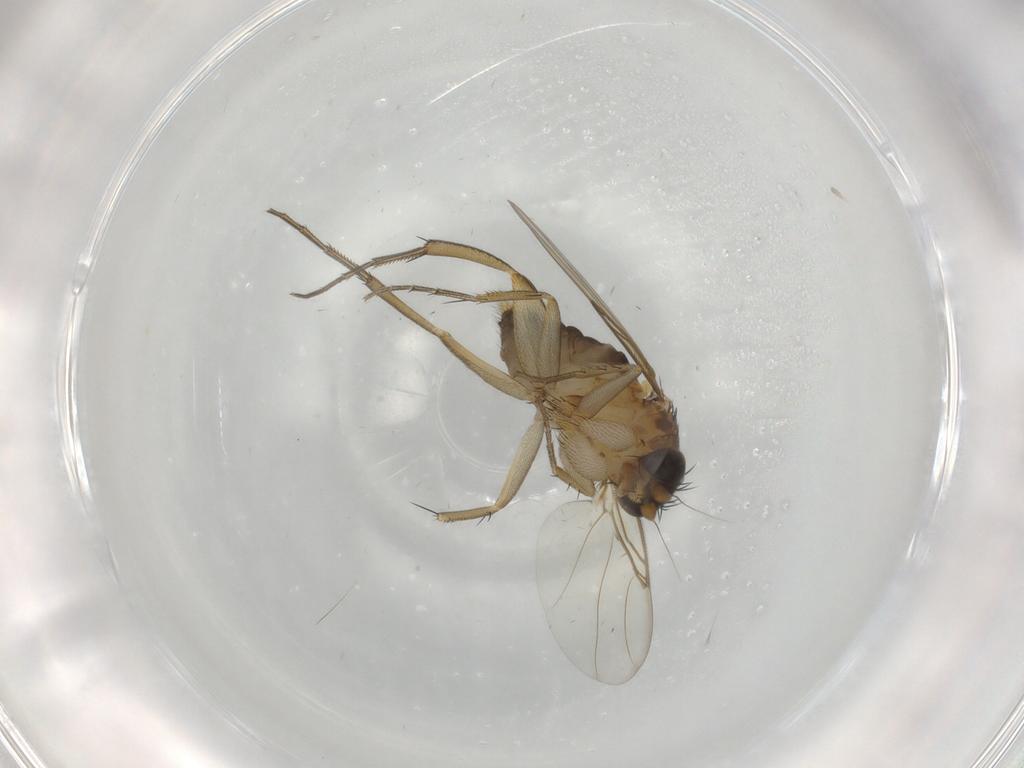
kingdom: Animalia
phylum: Arthropoda
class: Insecta
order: Diptera
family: Phoridae
